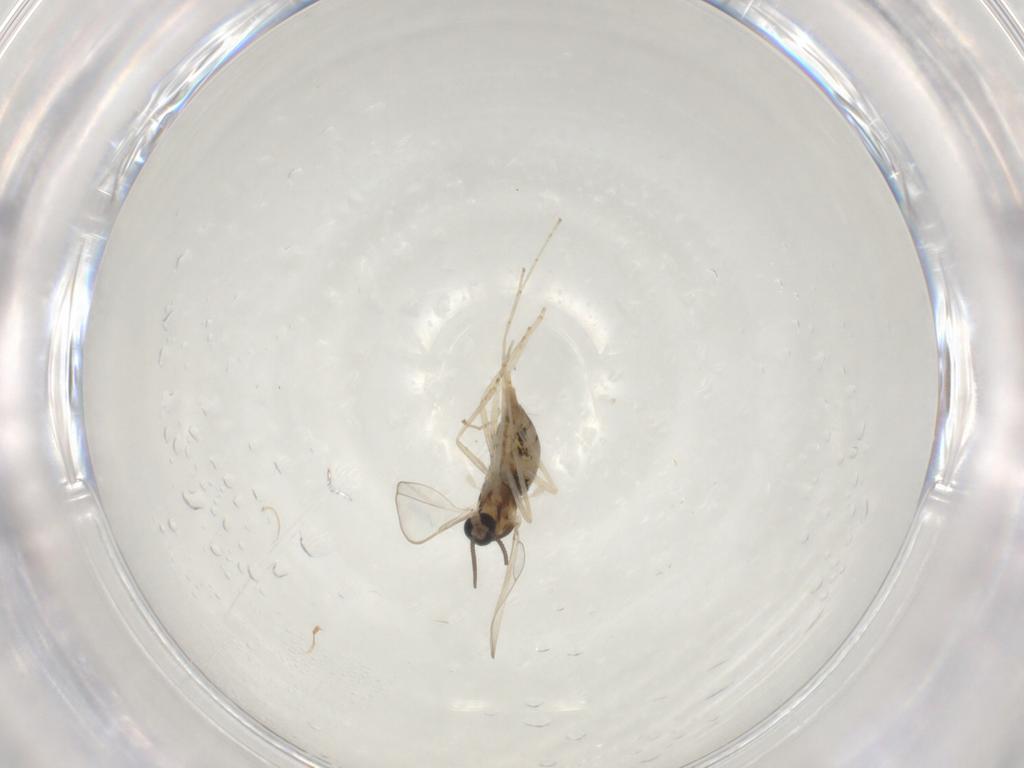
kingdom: Animalia
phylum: Arthropoda
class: Insecta
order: Diptera
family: Cecidomyiidae
